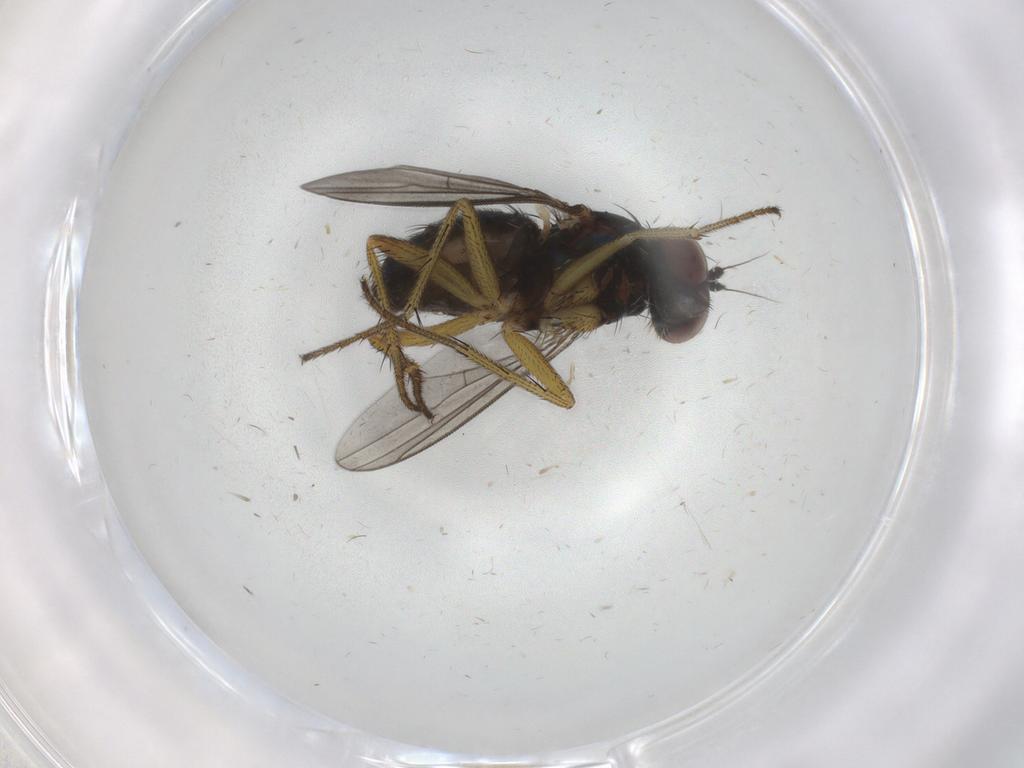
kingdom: Animalia
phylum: Arthropoda
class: Insecta
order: Diptera
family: Dolichopodidae
